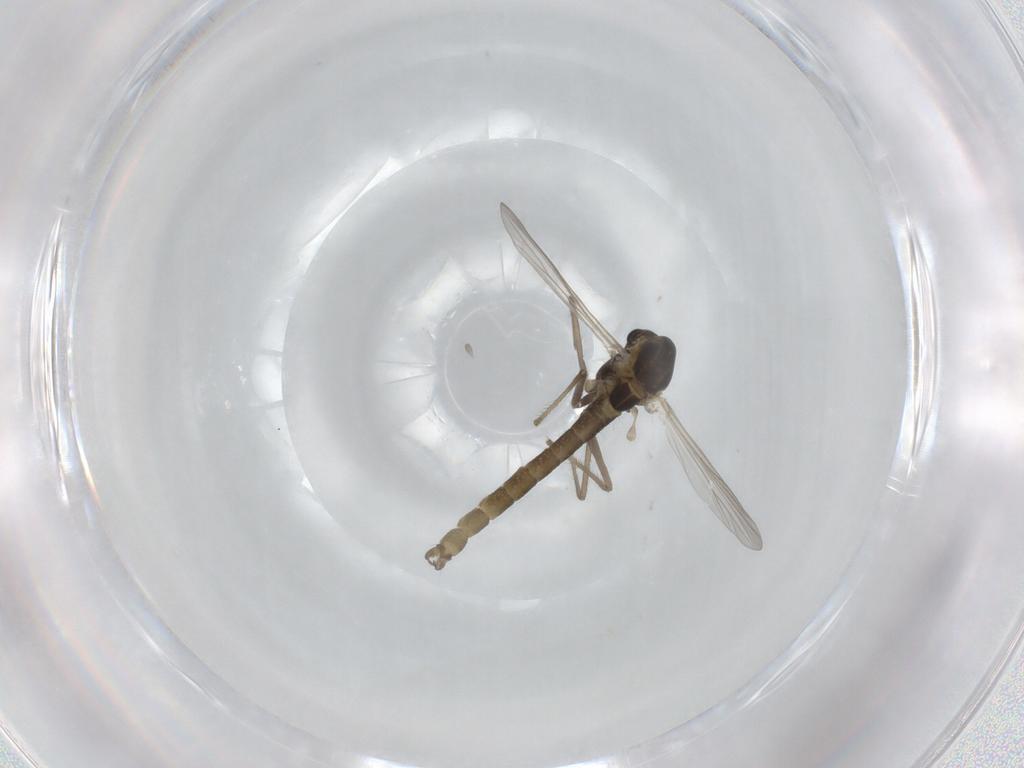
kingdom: Animalia
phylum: Arthropoda
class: Insecta
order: Diptera
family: Chironomidae
